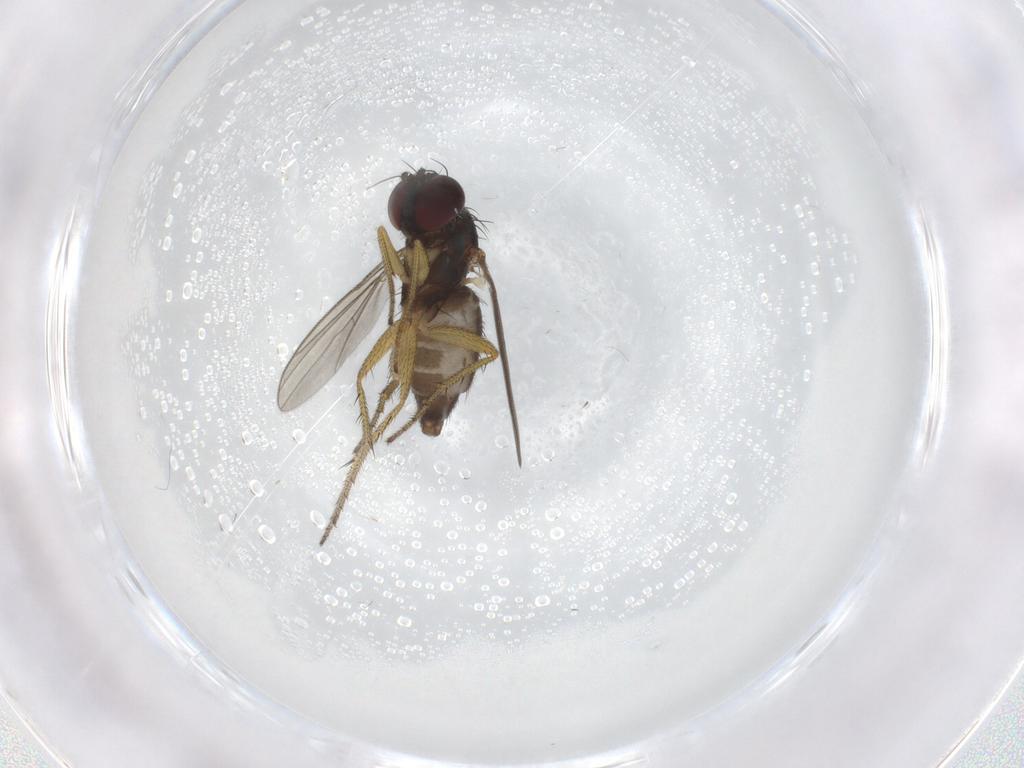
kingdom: Animalia
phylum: Arthropoda
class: Insecta
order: Diptera
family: Dolichopodidae
